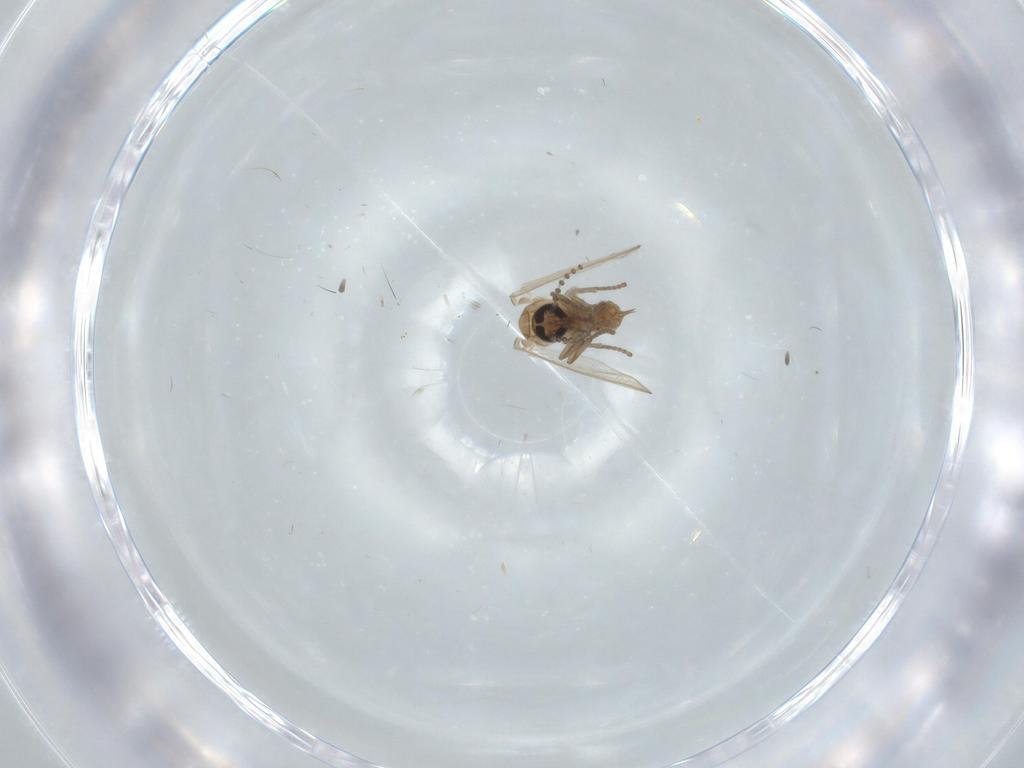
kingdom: Animalia
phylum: Arthropoda
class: Insecta
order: Diptera
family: Psychodidae
